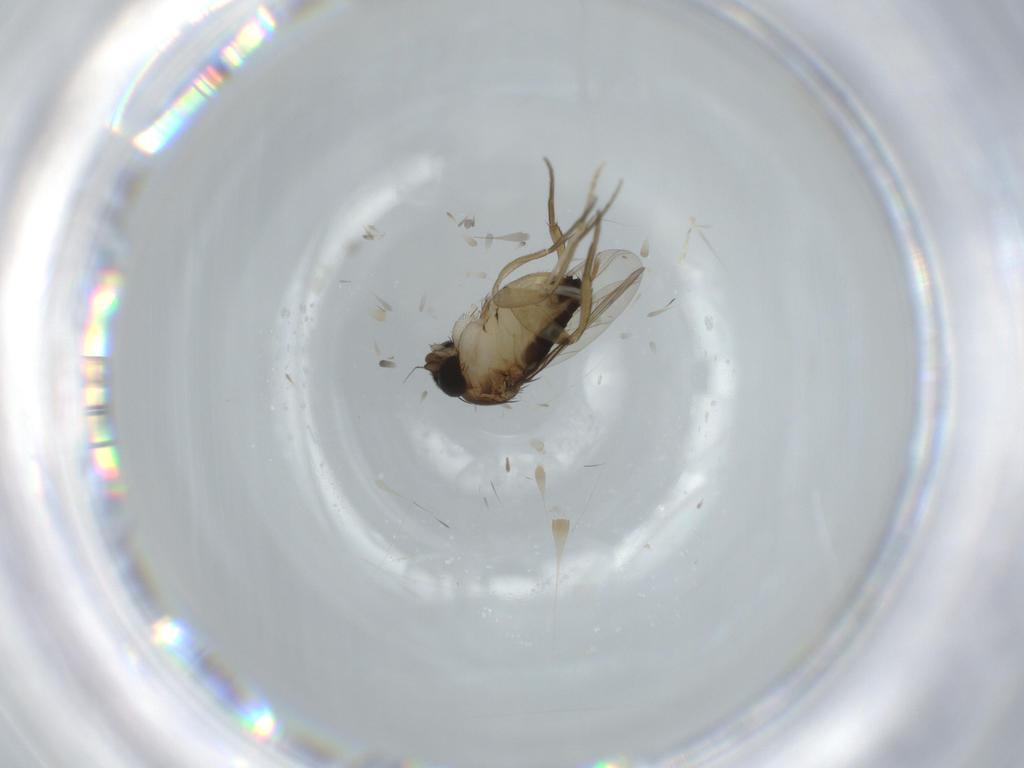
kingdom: Animalia
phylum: Arthropoda
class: Insecta
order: Diptera
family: Phoridae
